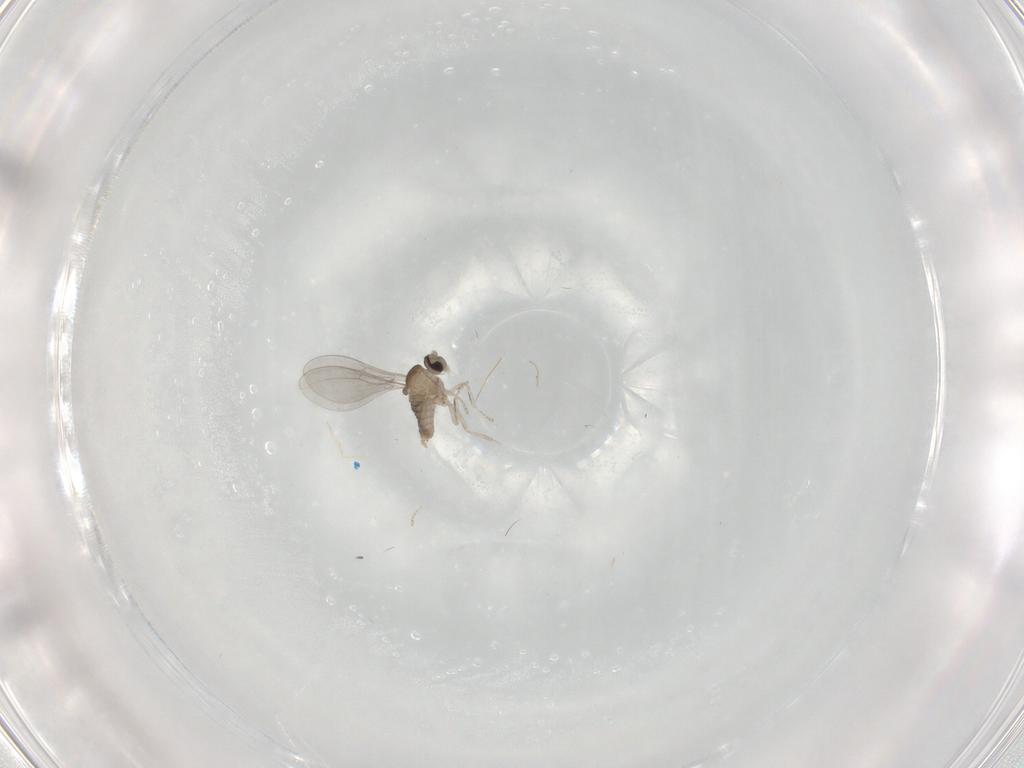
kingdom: Animalia
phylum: Arthropoda
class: Insecta
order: Diptera
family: Cecidomyiidae
